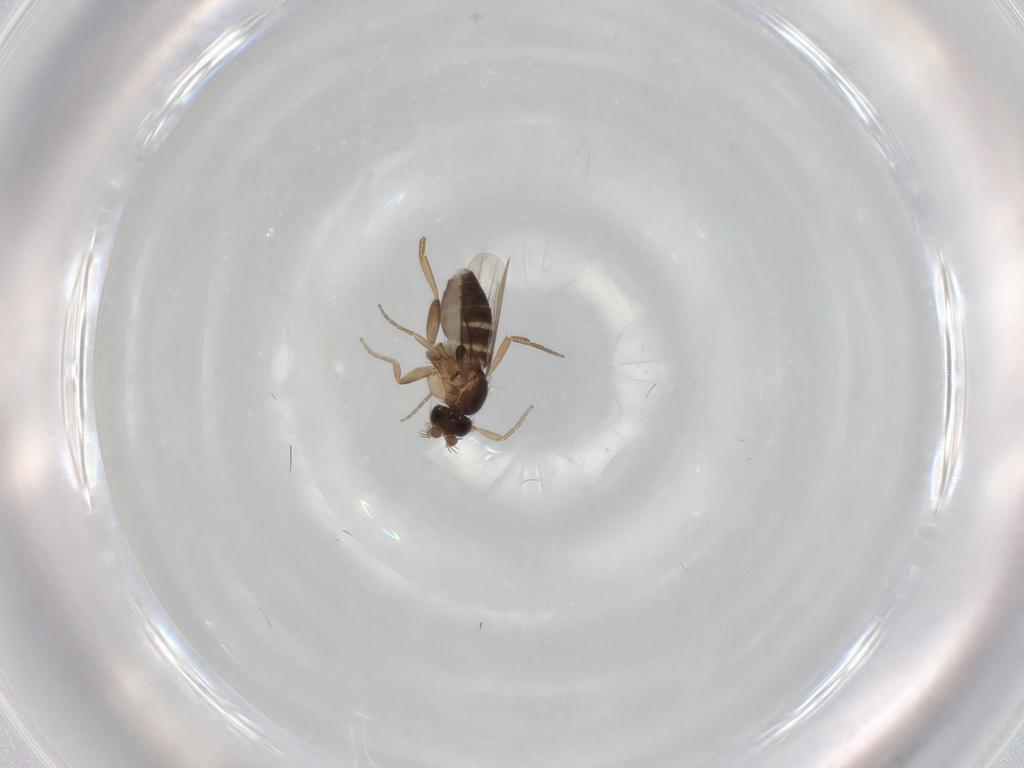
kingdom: Animalia
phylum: Arthropoda
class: Insecta
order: Diptera
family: Phoridae
